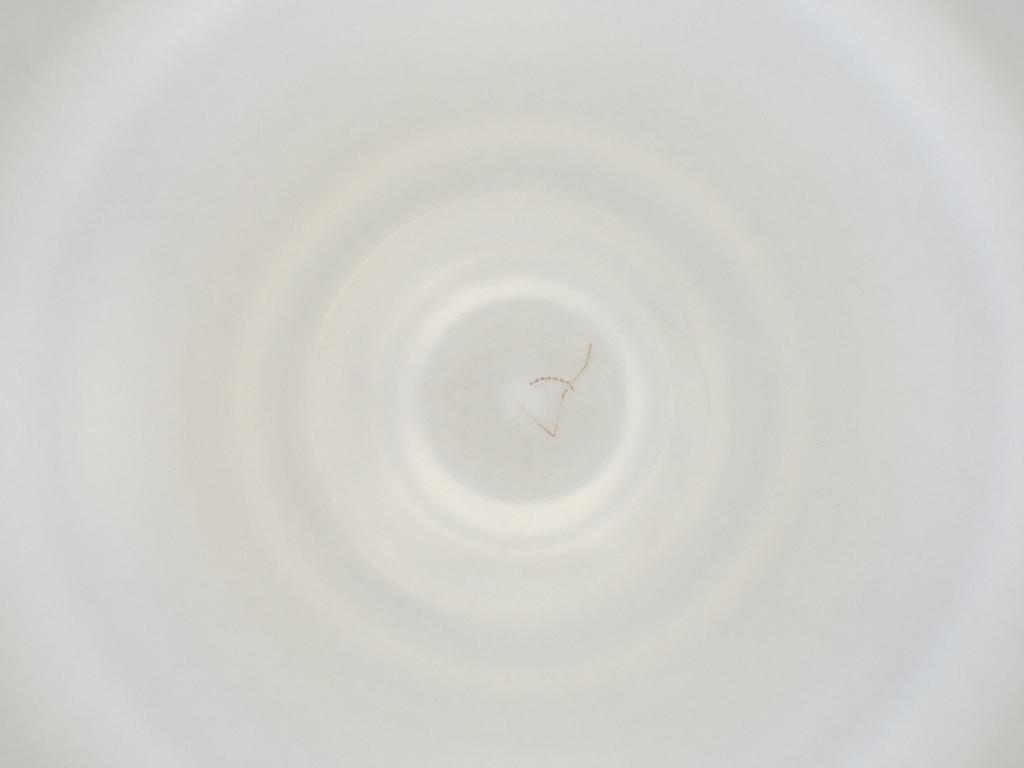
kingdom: Animalia
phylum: Arthropoda
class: Insecta
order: Diptera
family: Cecidomyiidae
